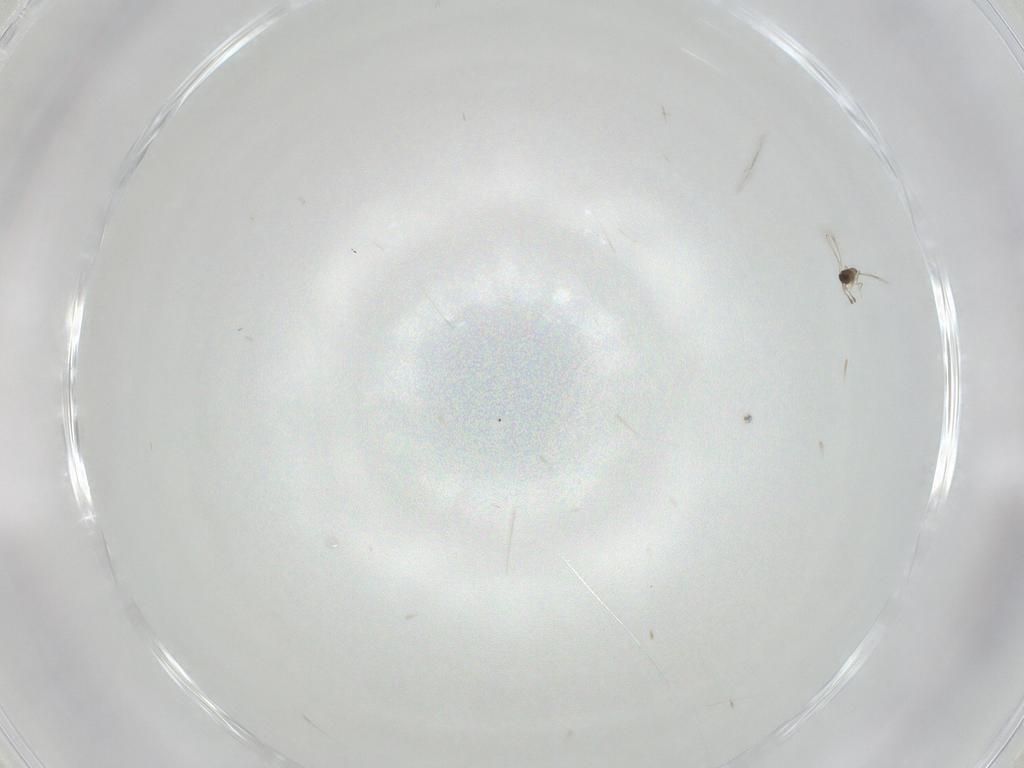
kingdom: Animalia
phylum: Arthropoda
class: Insecta
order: Hymenoptera
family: Mymaridae
